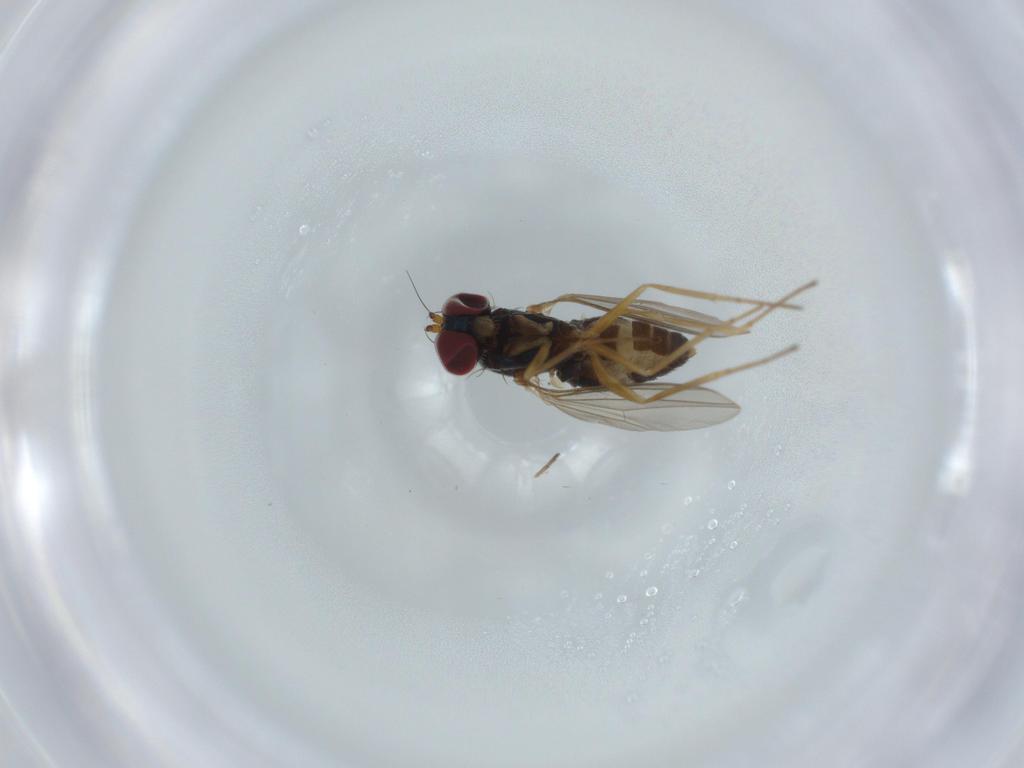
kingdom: Animalia
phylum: Arthropoda
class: Insecta
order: Diptera
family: Dolichopodidae
